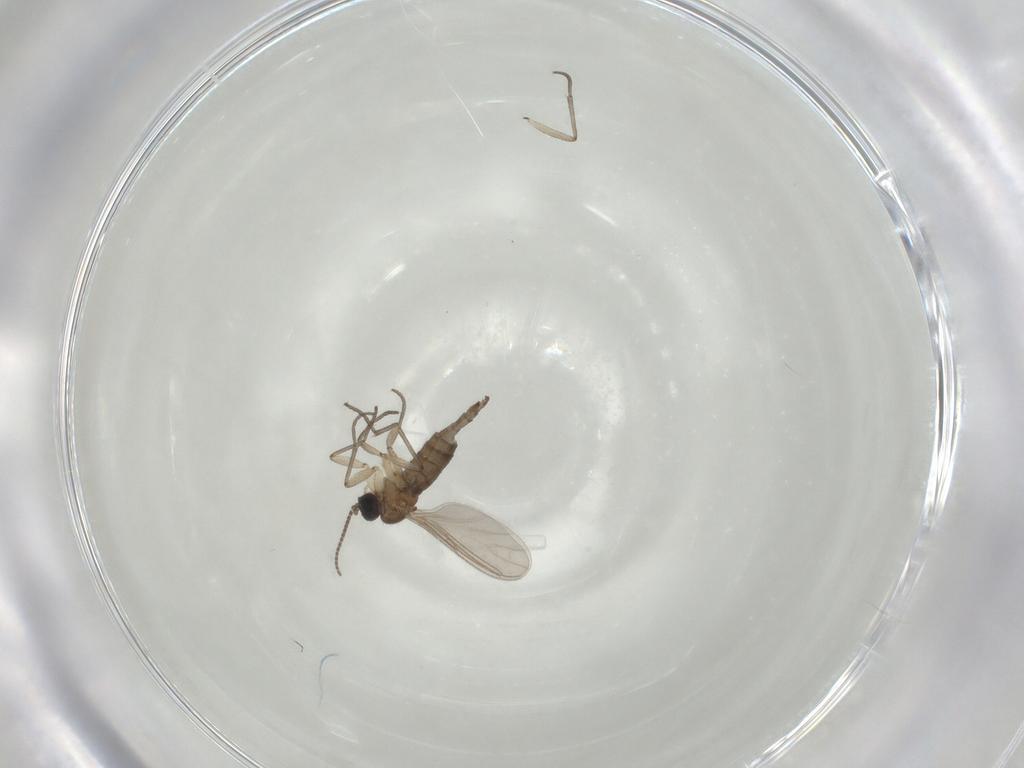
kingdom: Animalia
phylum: Arthropoda
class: Insecta
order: Diptera
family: Sciaridae
